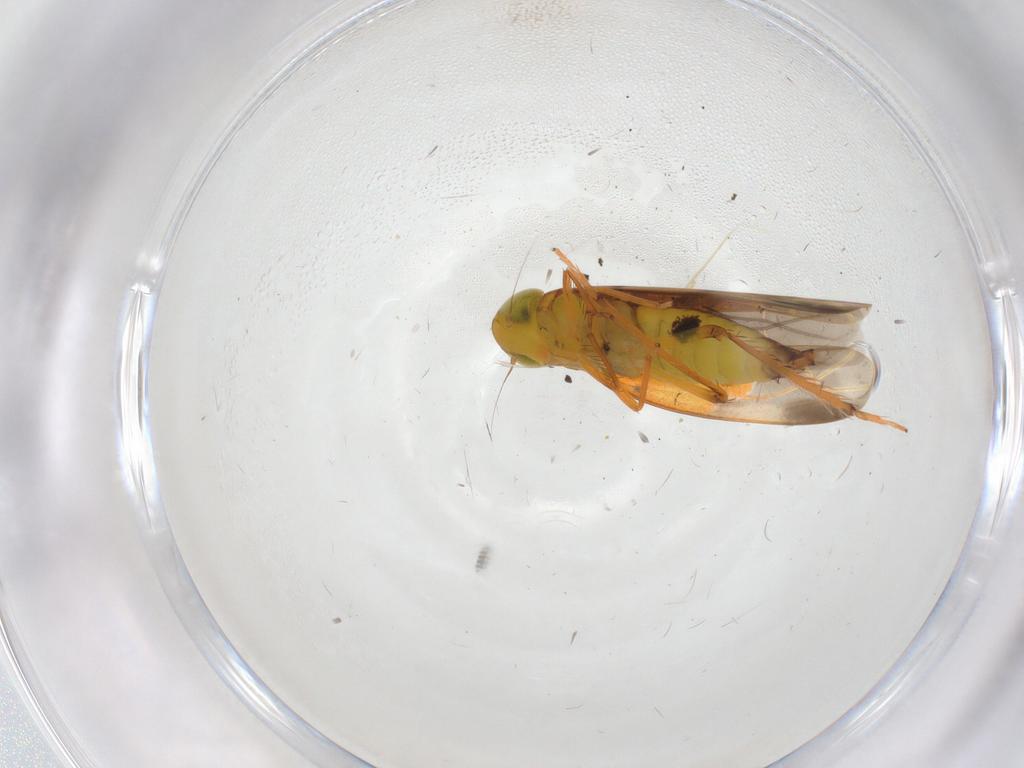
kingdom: Animalia
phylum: Arthropoda
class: Insecta
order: Hemiptera
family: Cicadellidae
